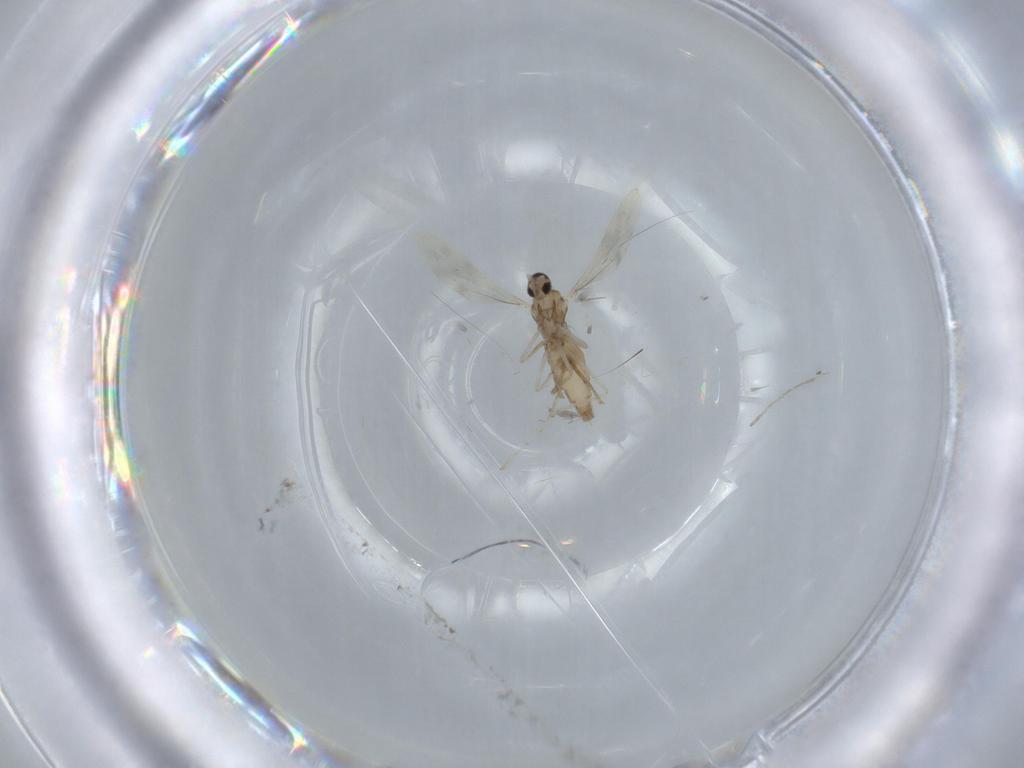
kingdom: Animalia
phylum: Arthropoda
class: Insecta
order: Diptera
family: Cecidomyiidae
